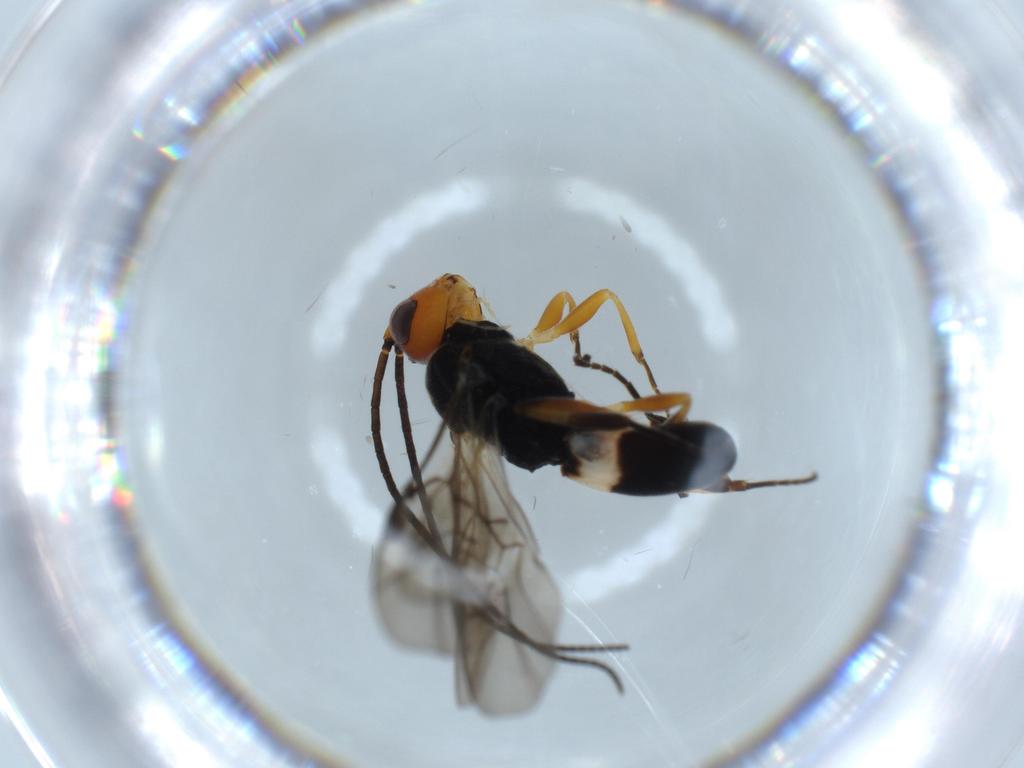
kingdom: Animalia
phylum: Arthropoda
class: Insecta
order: Hymenoptera
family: Braconidae
